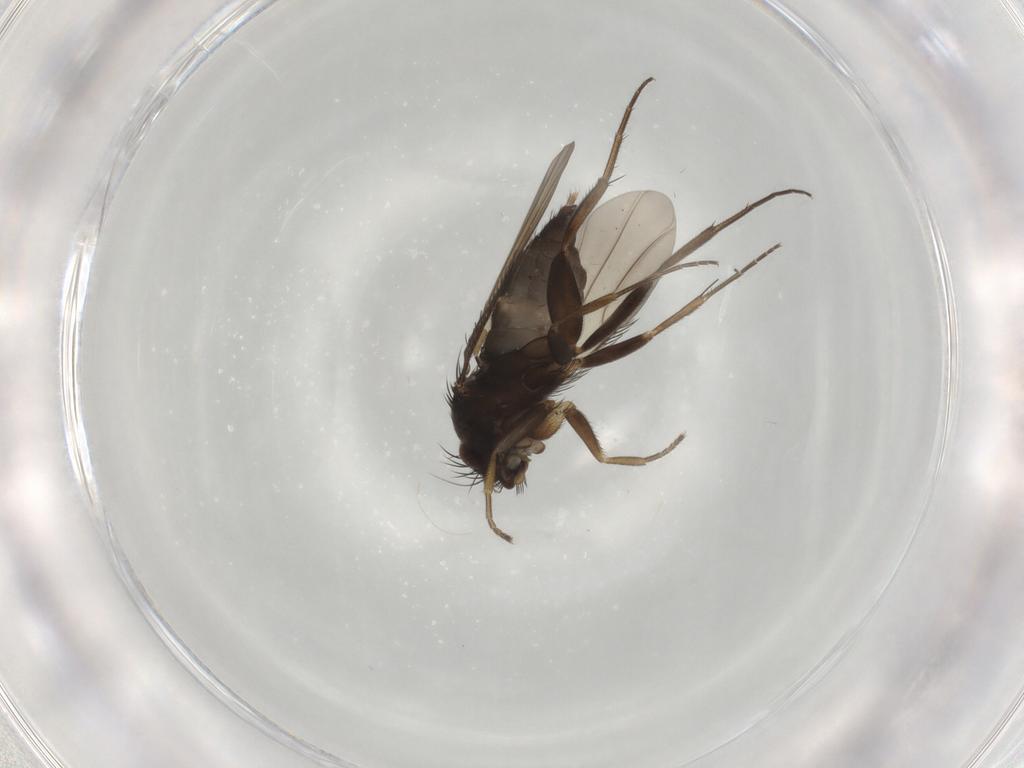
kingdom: Animalia
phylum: Arthropoda
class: Insecta
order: Diptera
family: Phoridae
